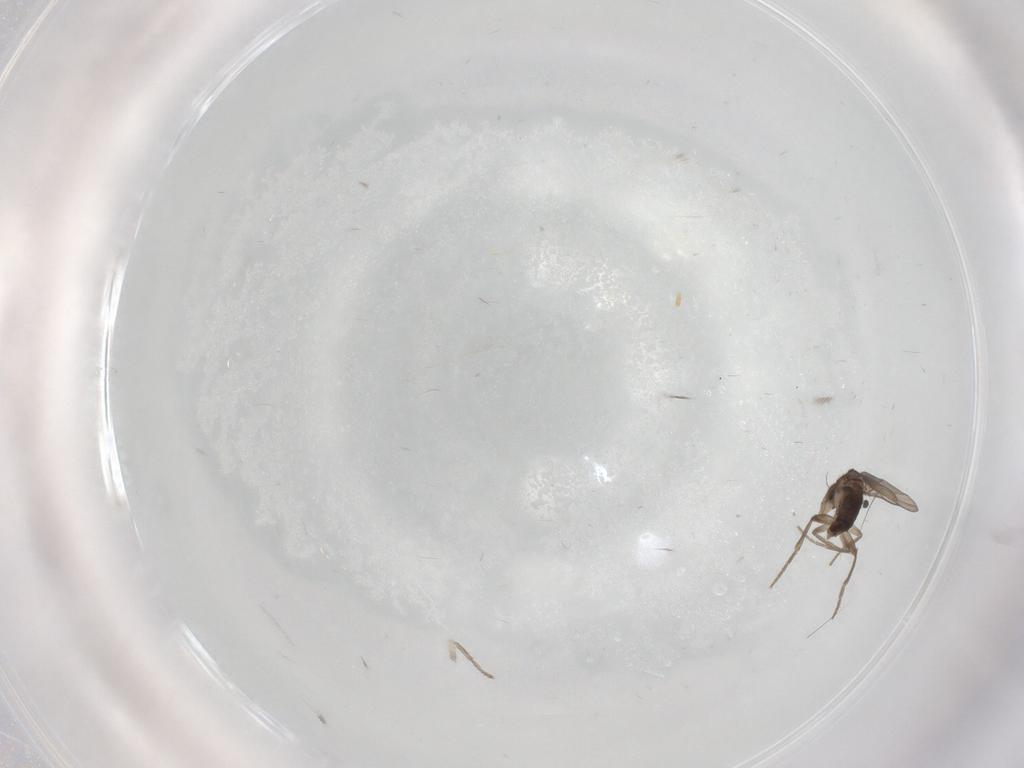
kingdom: Animalia
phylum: Arthropoda
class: Insecta
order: Diptera
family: Phoridae
